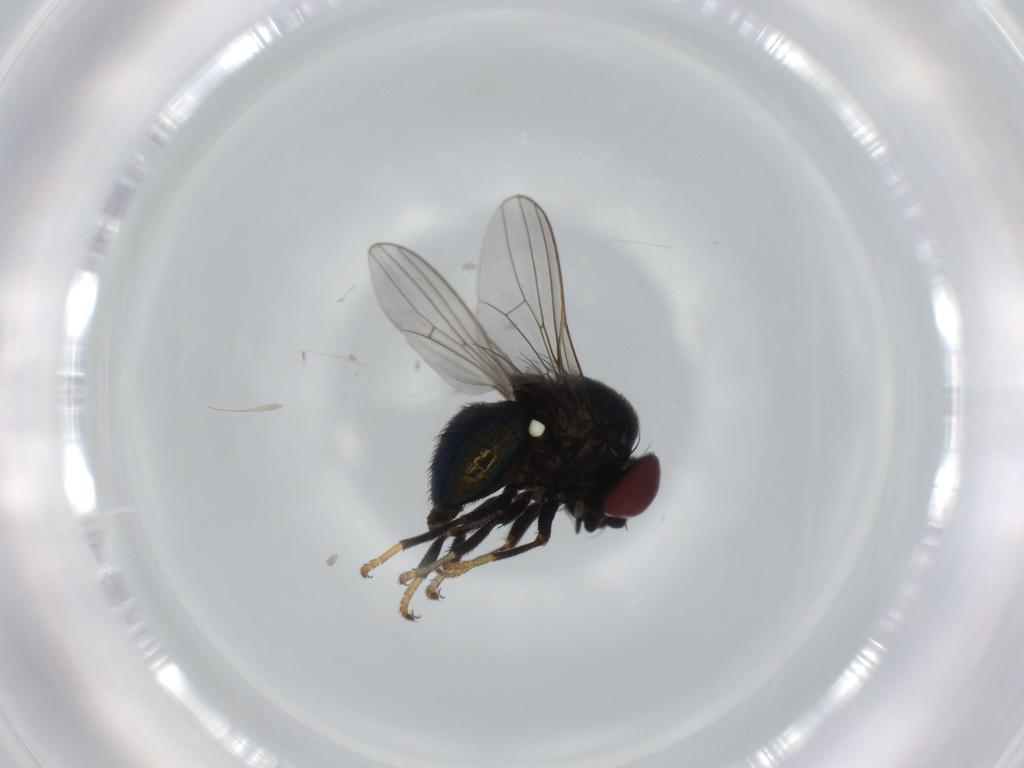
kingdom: Animalia
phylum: Arthropoda
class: Insecta
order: Diptera
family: Chamaemyiidae
